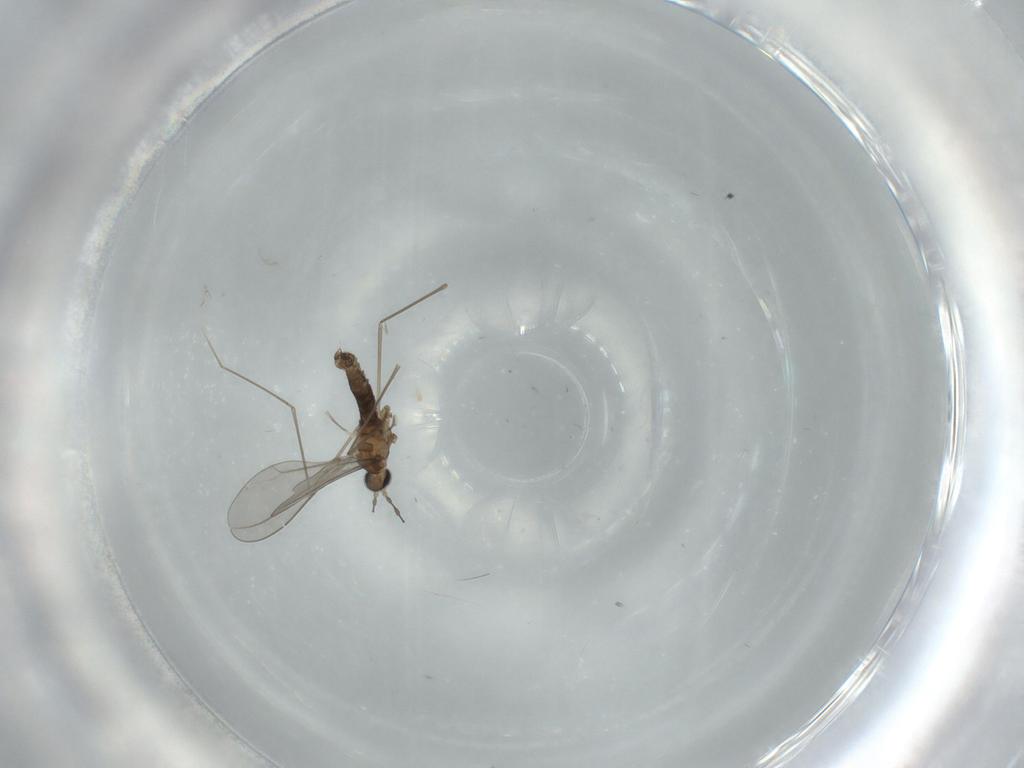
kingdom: Animalia
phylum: Arthropoda
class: Insecta
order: Diptera
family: Cecidomyiidae
